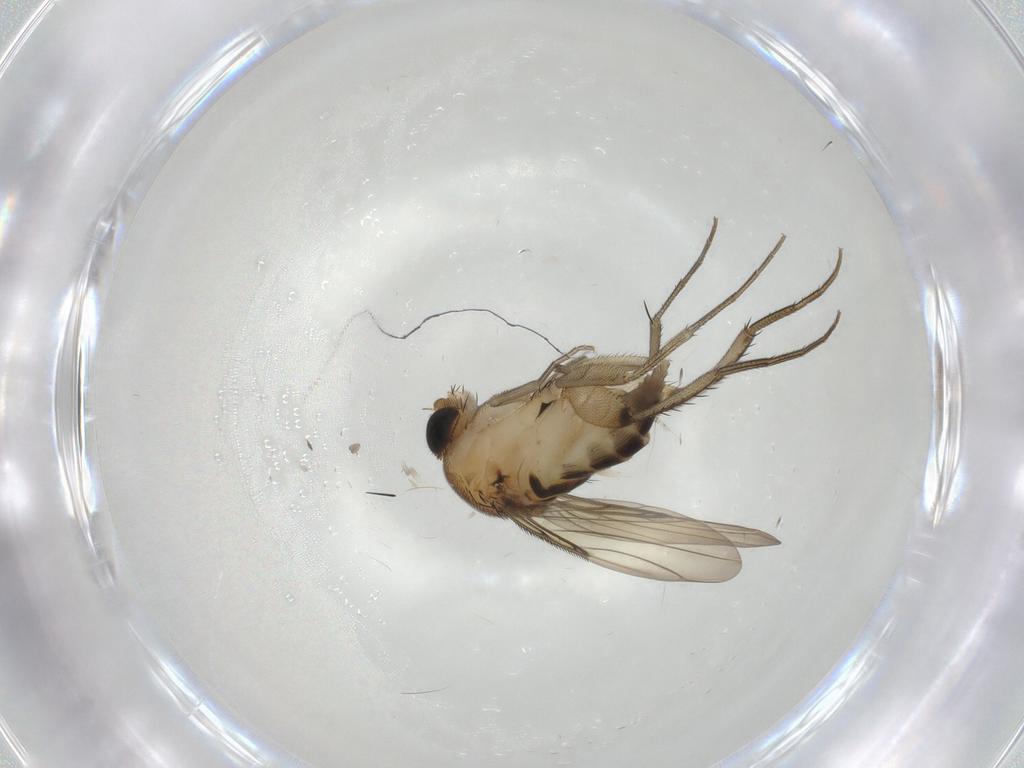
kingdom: Animalia
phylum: Arthropoda
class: Insecta
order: Diptera
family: Phoridae
